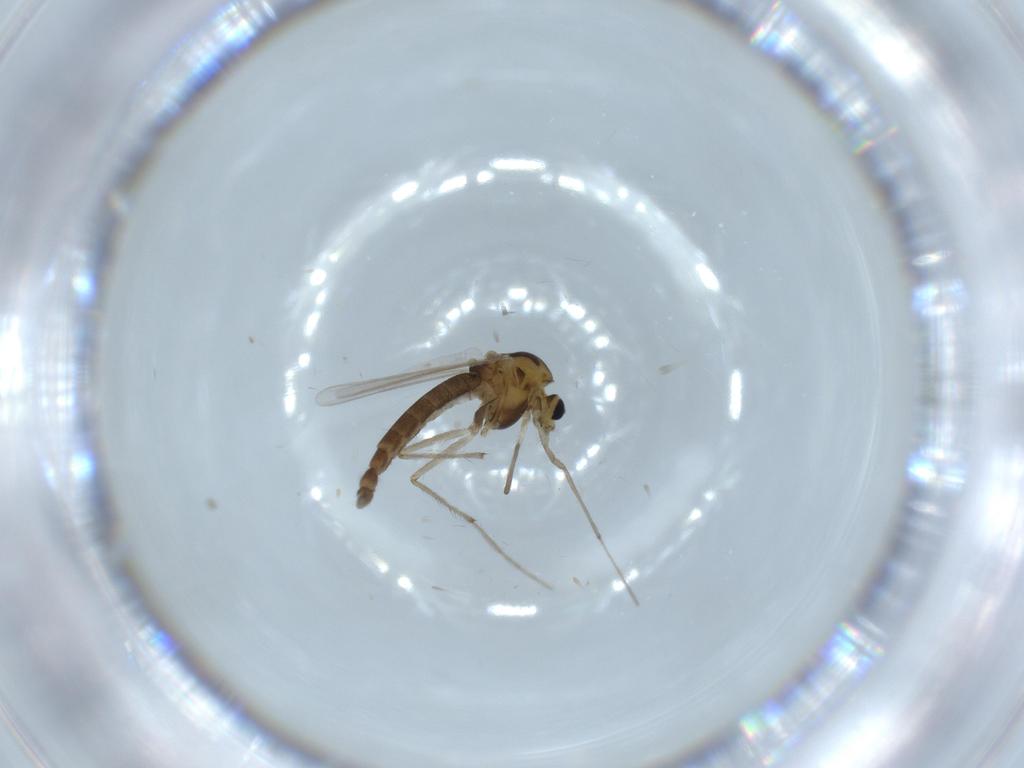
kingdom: Animalia
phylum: Arthropoda
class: Insecta
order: Diptera
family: Chironomidae
